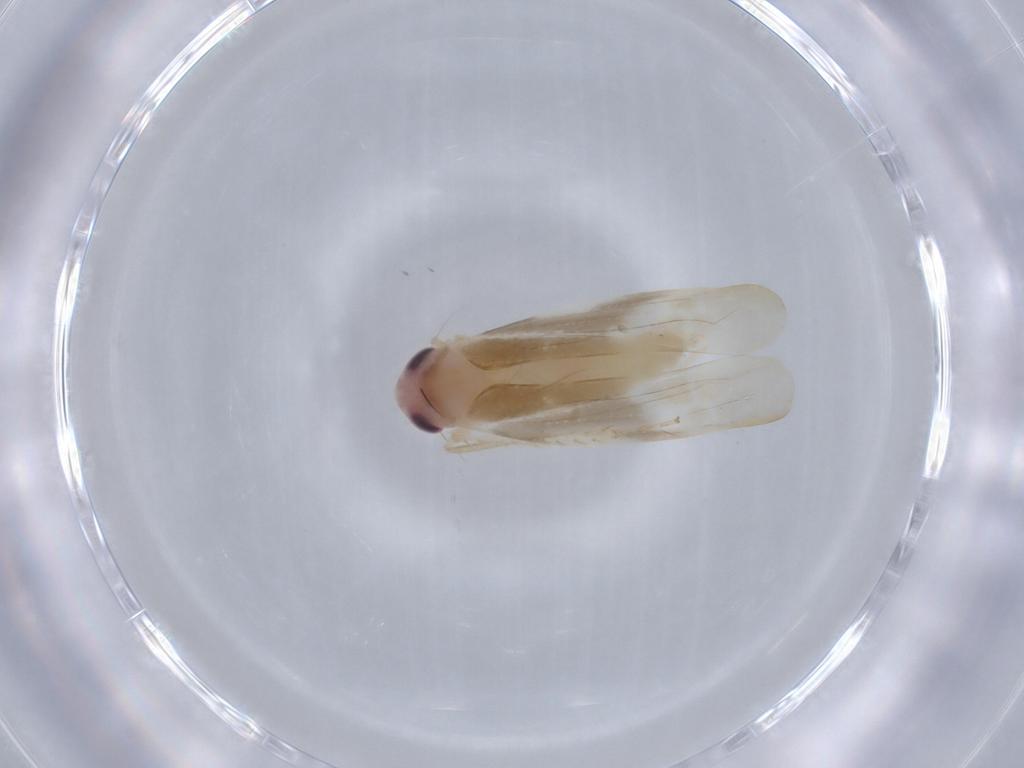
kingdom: Animalia
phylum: Arthropoda
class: Insecta
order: Hemiptera
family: Cicadellidae
